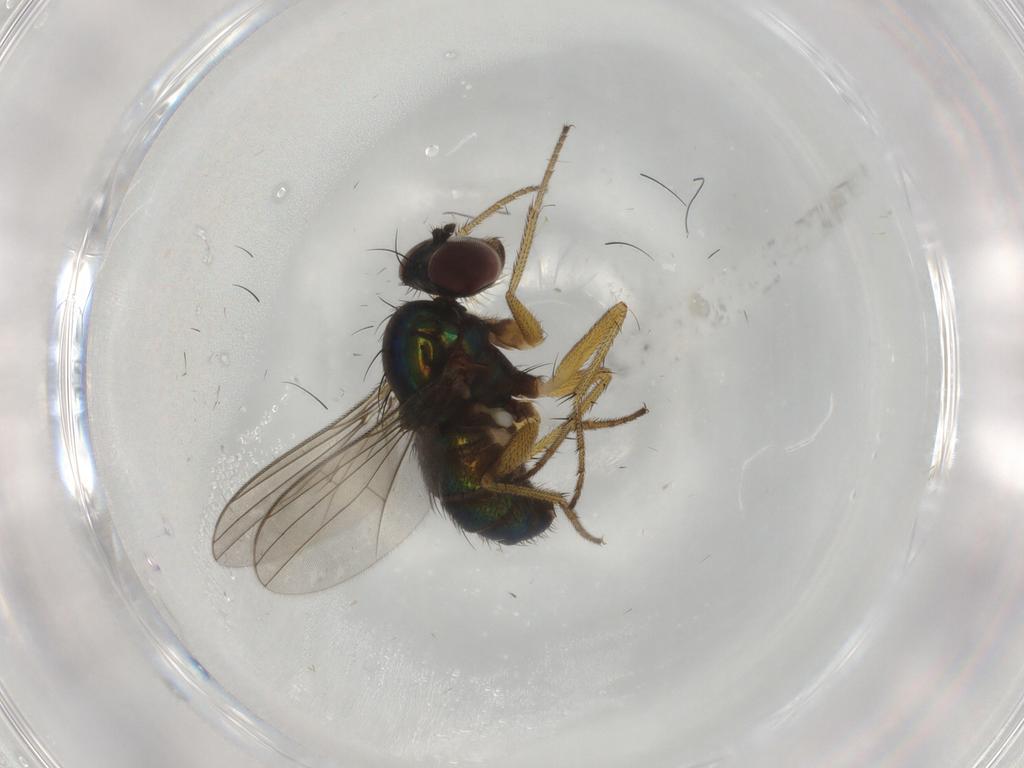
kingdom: Animalia
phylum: Arthropoda
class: Insecta
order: Diptera
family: Dolichopodidae
